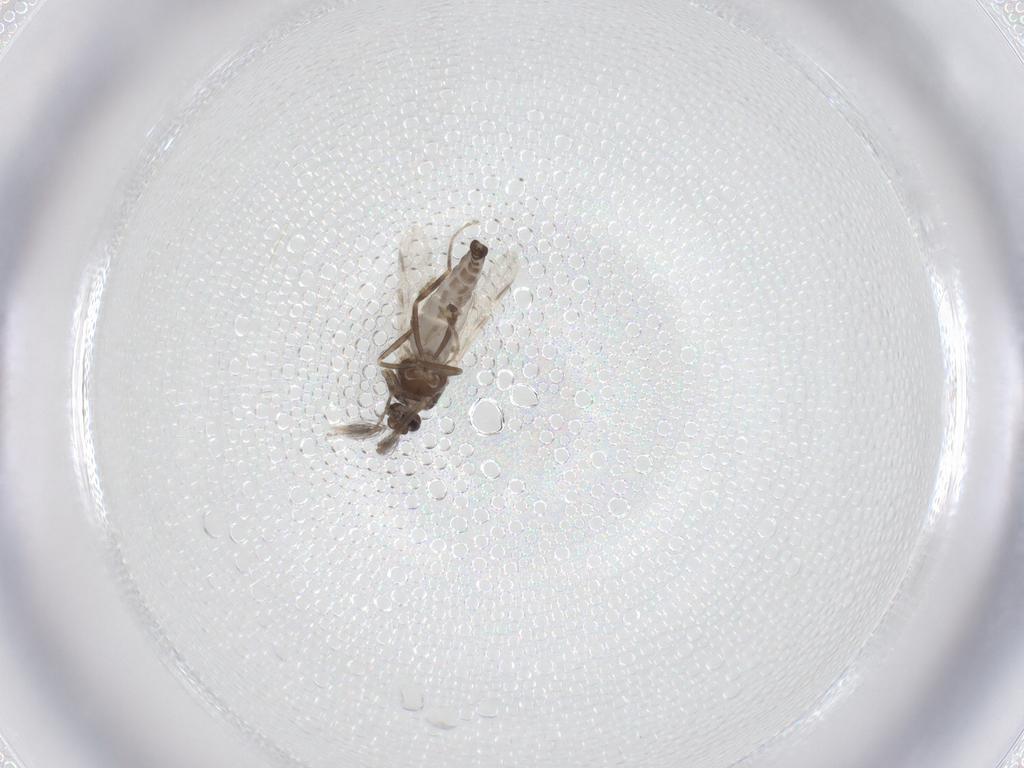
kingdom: Animalia
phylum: Arthropoda
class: Insecta
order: Diptera
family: Ceratopogonidae
